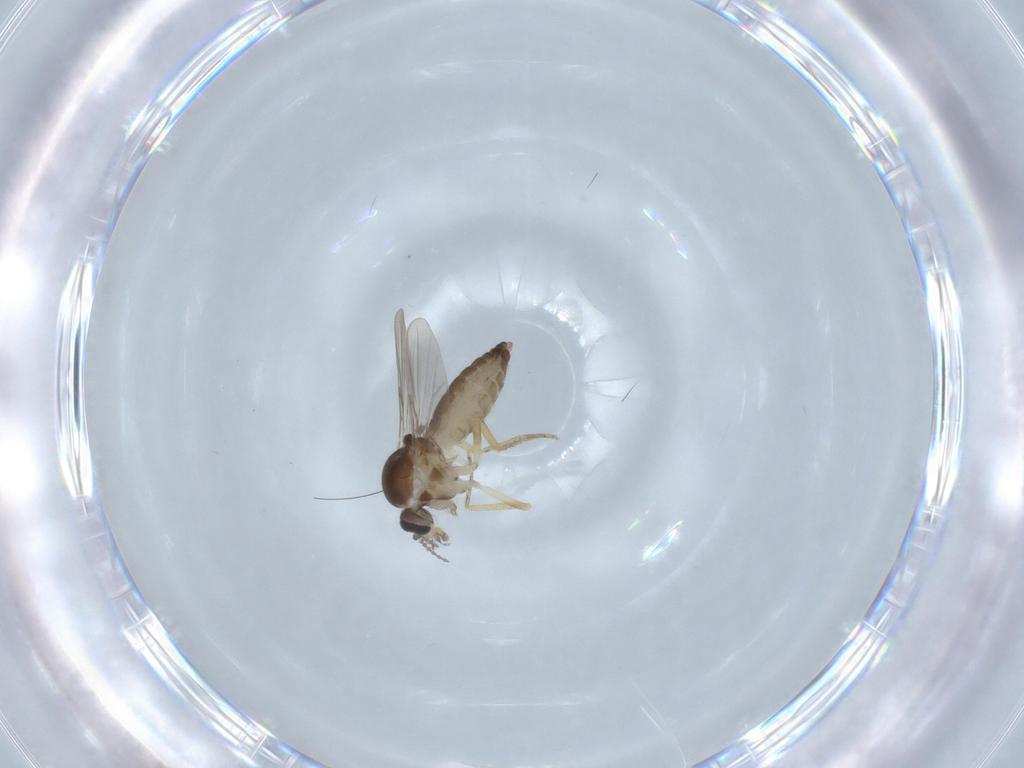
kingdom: Animalia
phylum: Arthropoda
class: Insecta
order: Diptera
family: Ceratopogonidae
